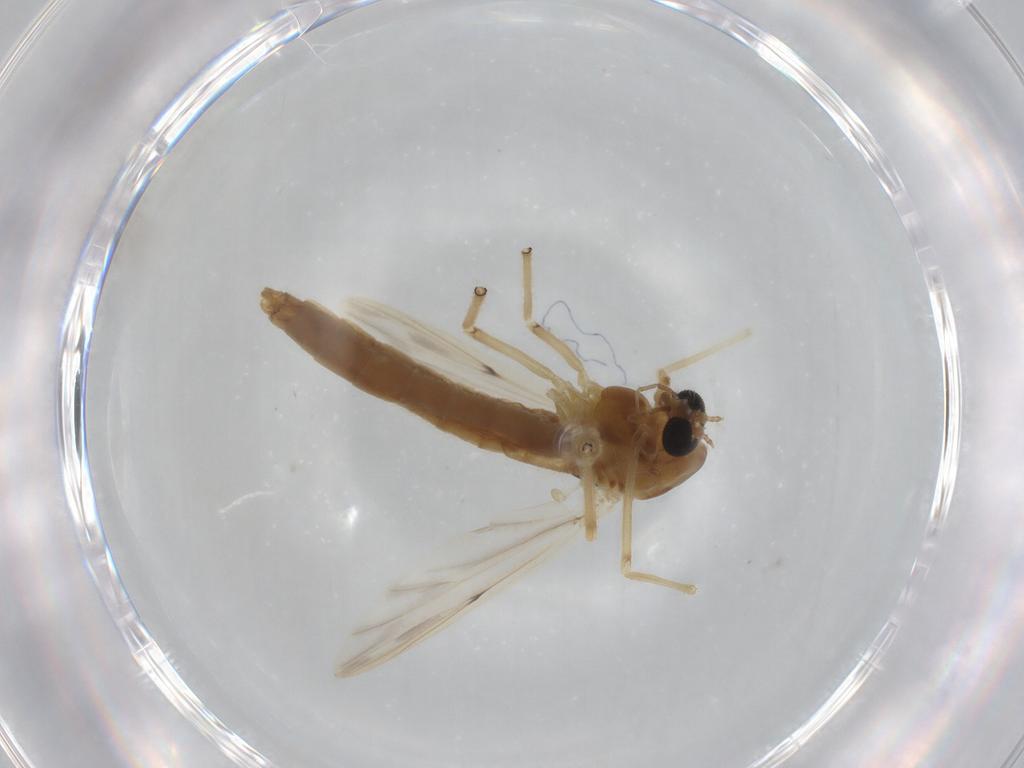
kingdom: Animalia
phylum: Arthropoda
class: Insecta
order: Diptera
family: Chironomidae
